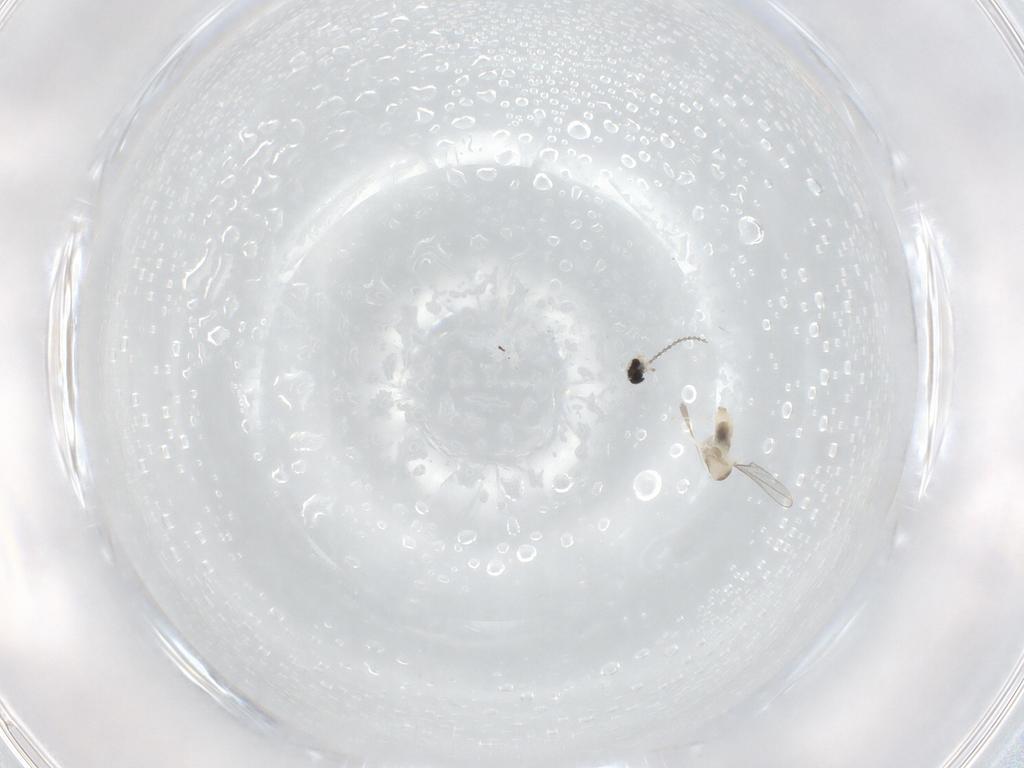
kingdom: Animalia
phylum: Arthropoda
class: Insecta
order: Diptera
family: Cecidomyiidae
